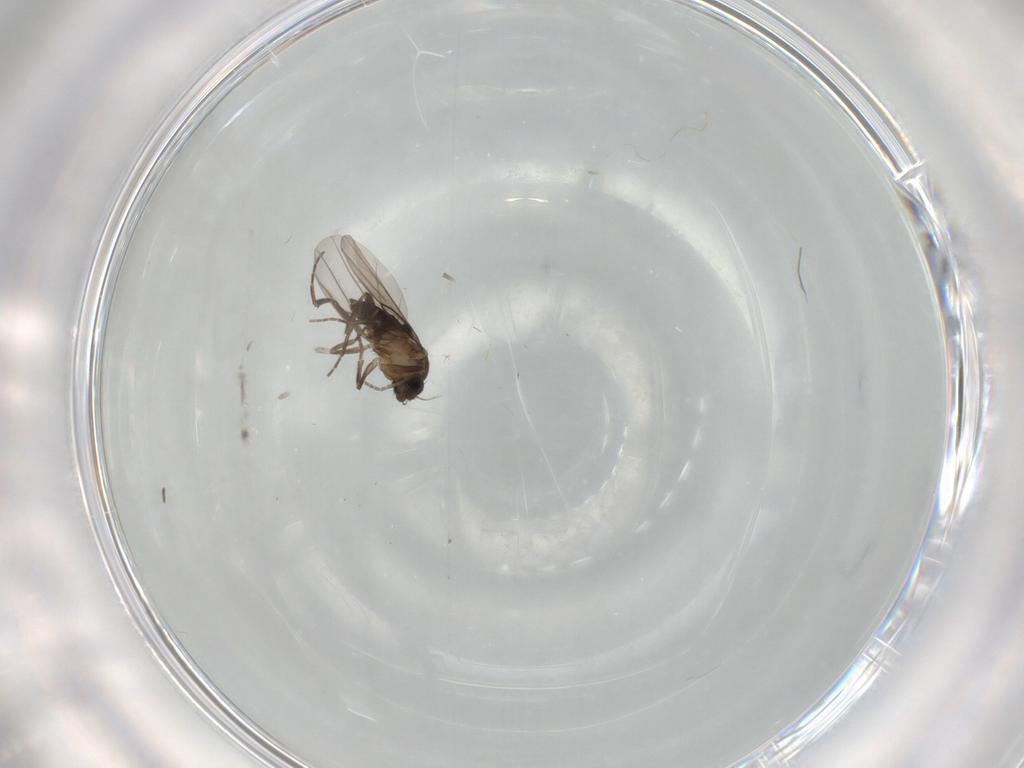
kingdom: Animalia
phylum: Arthropoda
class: Insecta
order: Diptera
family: Phoridae
